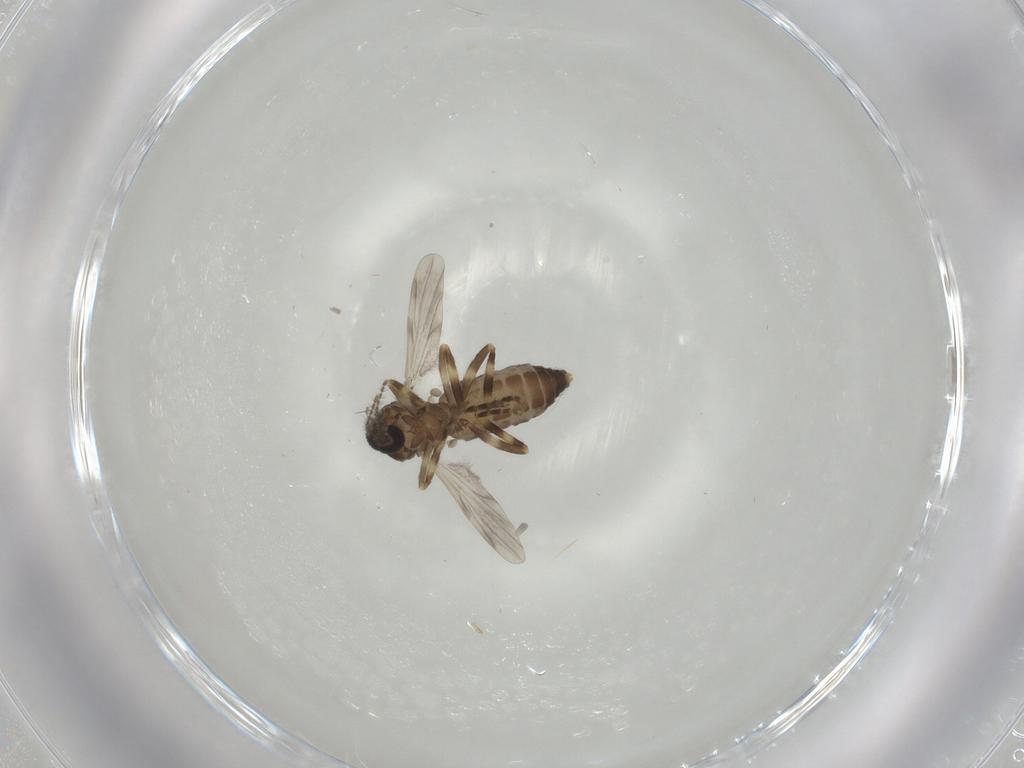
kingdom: Animalia
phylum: Arthropoda
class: Insecta
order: Diptera
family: Ceratopogonidae
